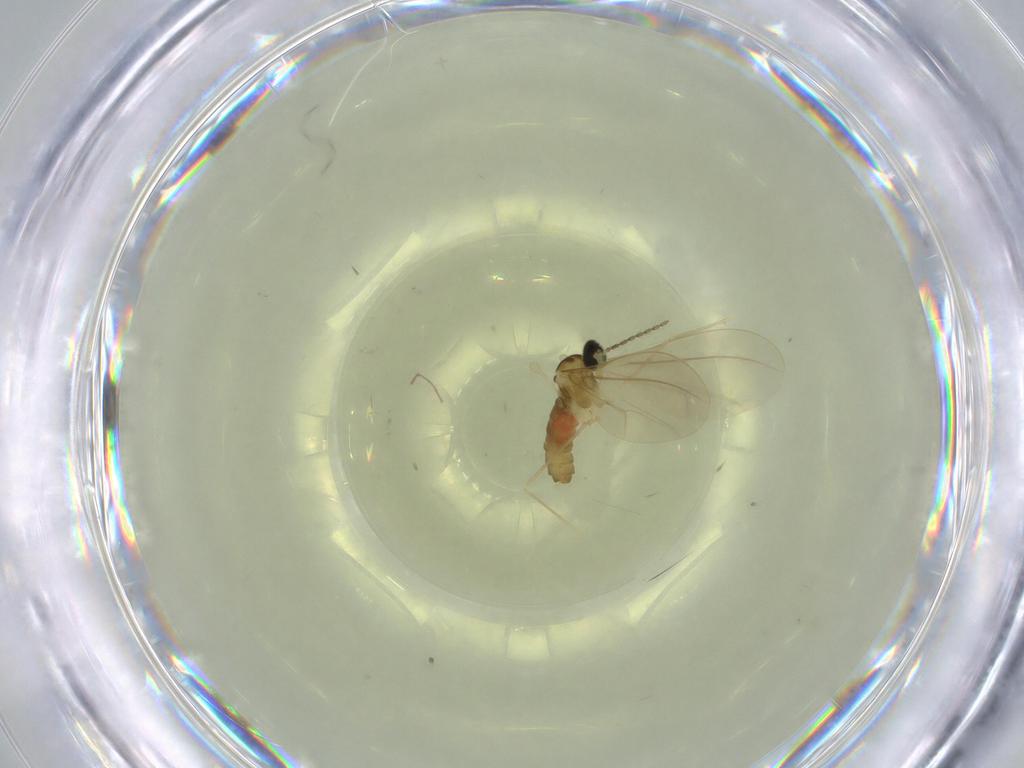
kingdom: Animalia
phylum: Arthropoda
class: Insecta
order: Diptera
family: Cecidomyiidae
